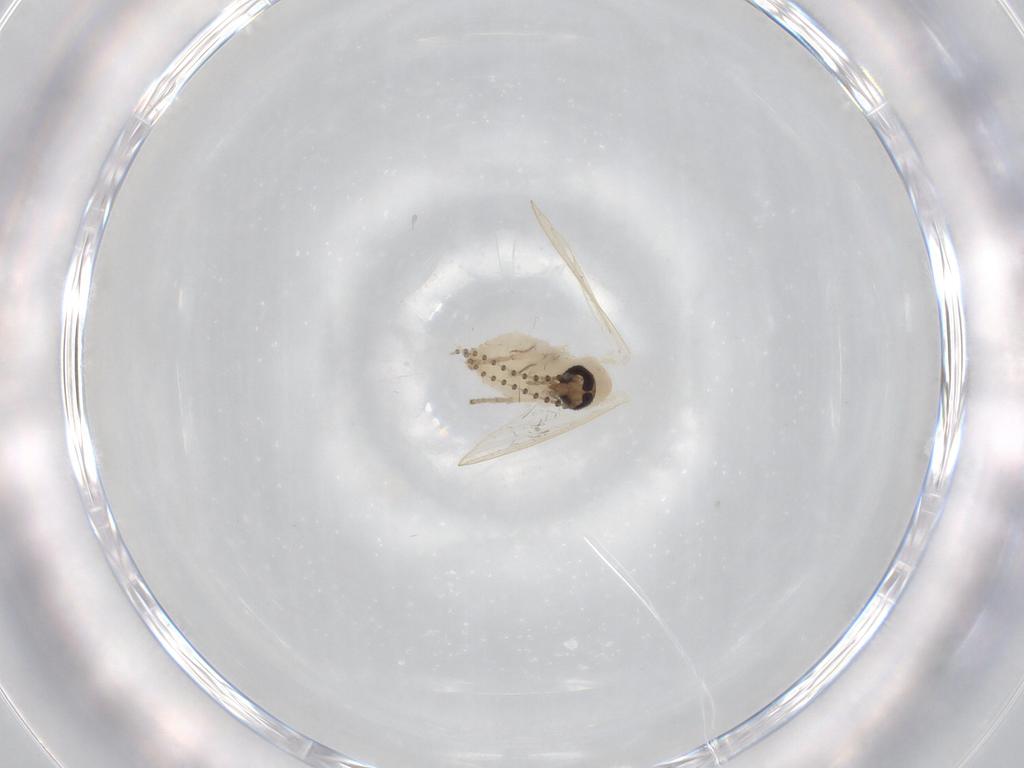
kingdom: Animalia
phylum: Arthropoda
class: Insecta
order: Diptera
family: Psychodidae
